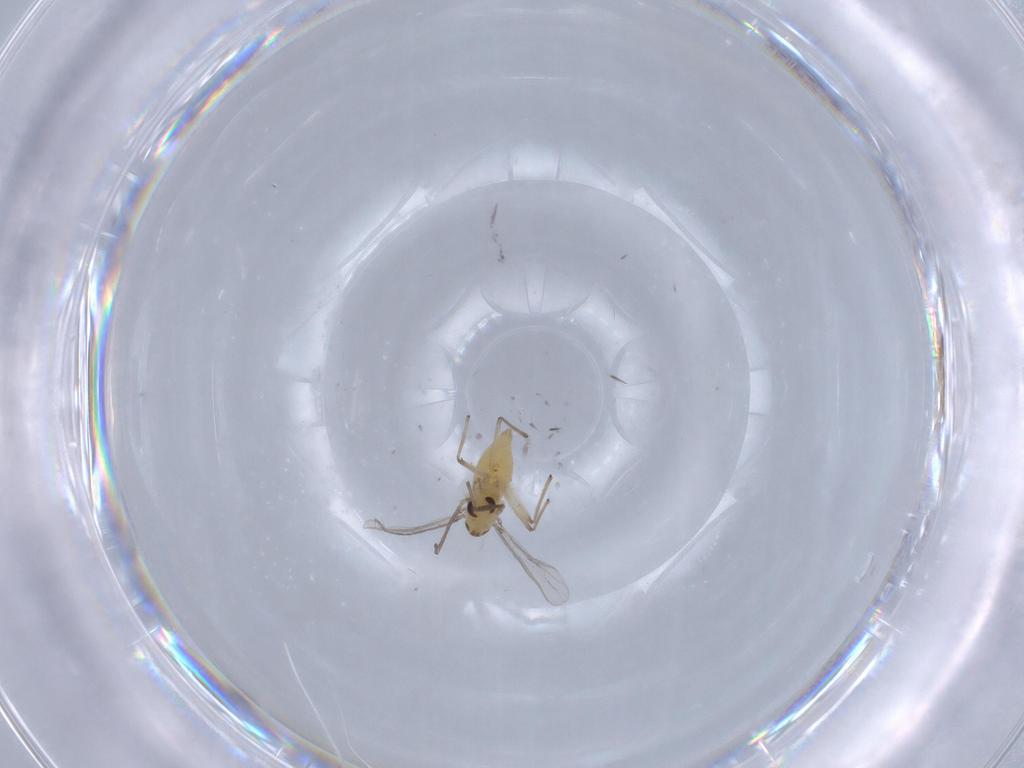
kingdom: Animalia
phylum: Arthropoda
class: Insecta
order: Diptera
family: Chironomidae
